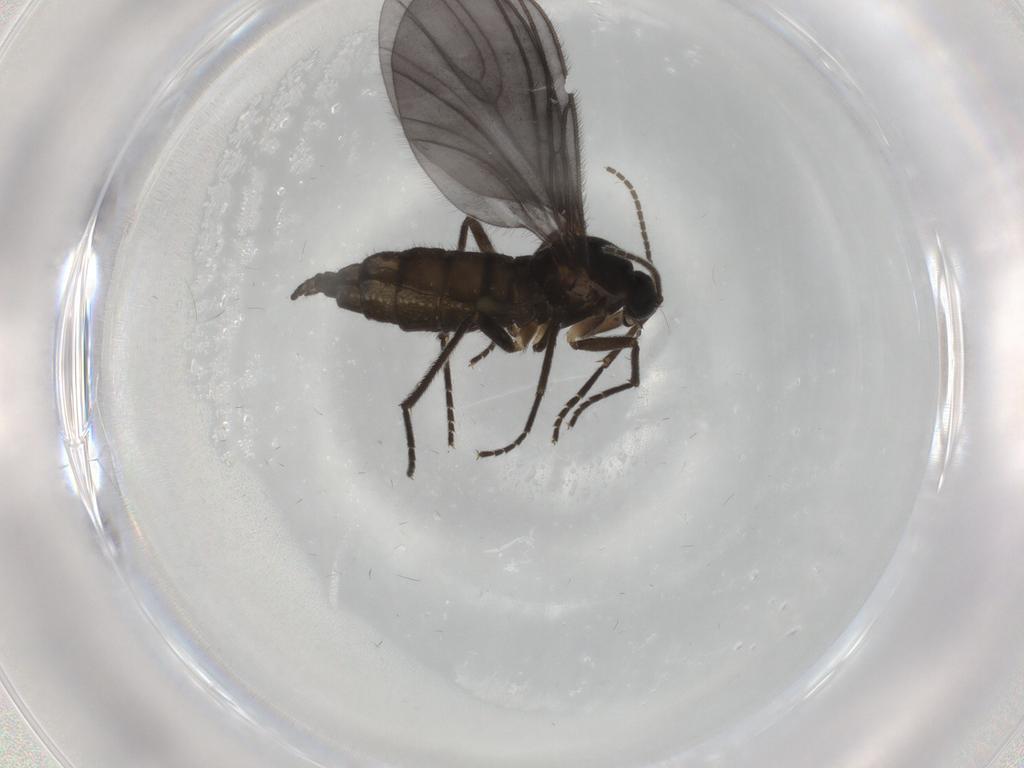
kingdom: Animalia
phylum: Arthropoda
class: Insecta
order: Diptera
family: Sciaridae
